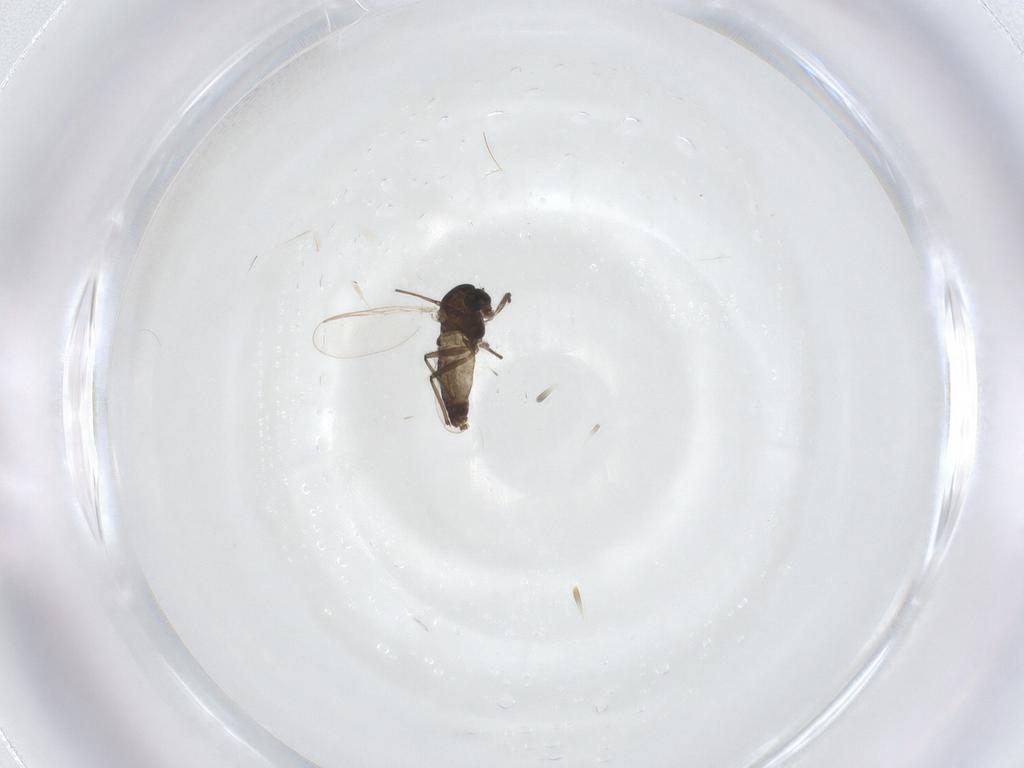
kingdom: Animalia
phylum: Arthropoda
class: Insecta
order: Diptera
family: Chironomidae
